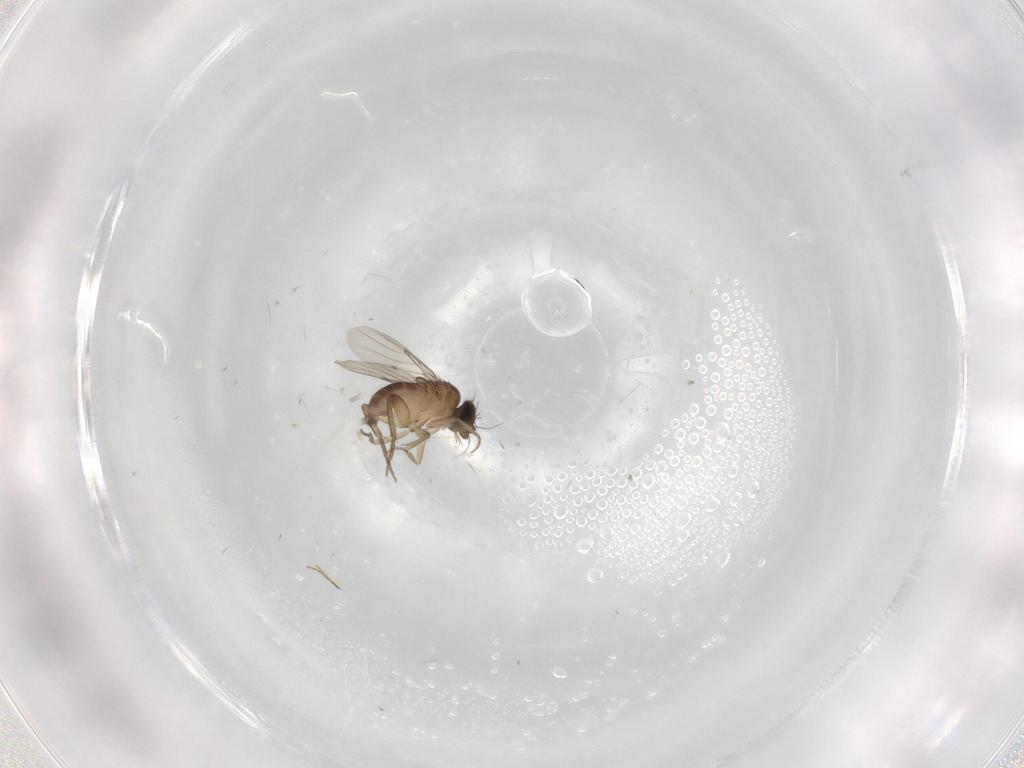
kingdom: Animalia
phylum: Arthropoda
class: Insecta
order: Diptera
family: Phoridae
